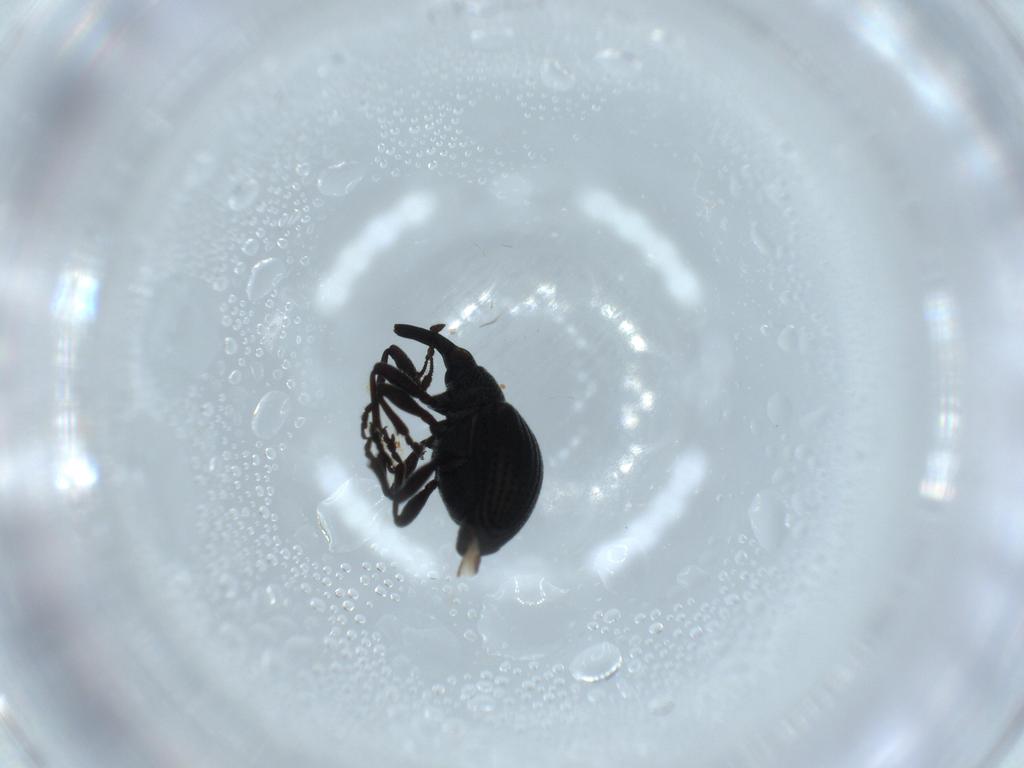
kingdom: Animalia
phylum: Arthropoda
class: Insecta
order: Coleoptera
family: Brentidae
